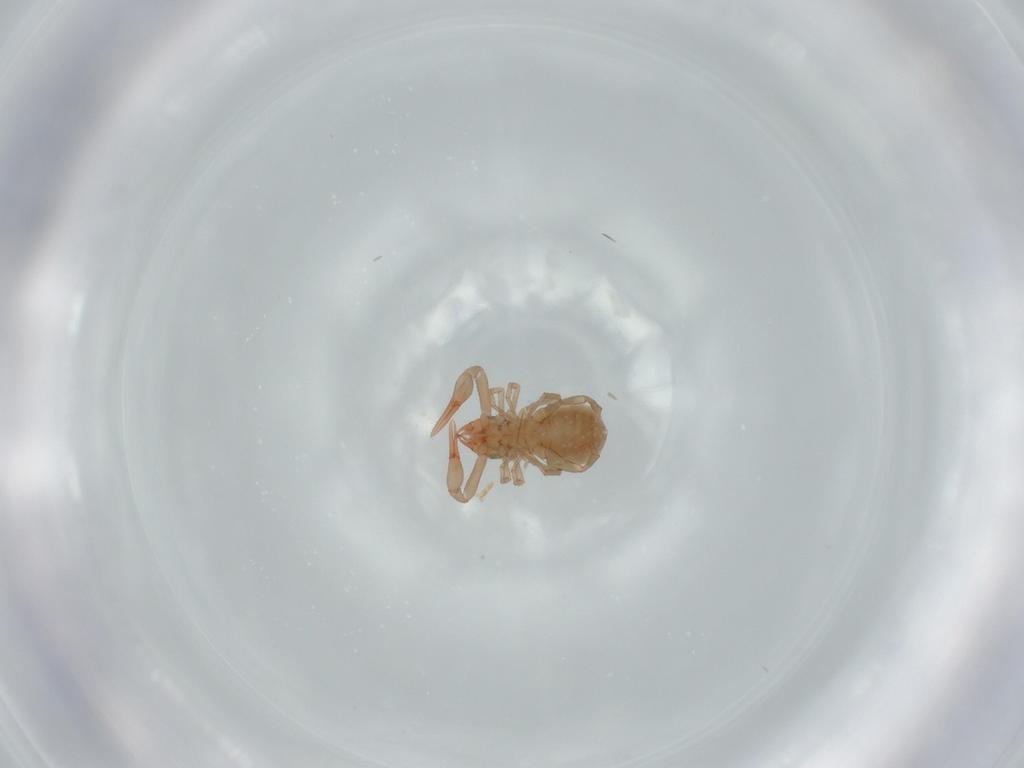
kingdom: Animalia
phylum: Arthropoda
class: Arachnida
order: Pseudoscorpiones
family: Chthoniidae
